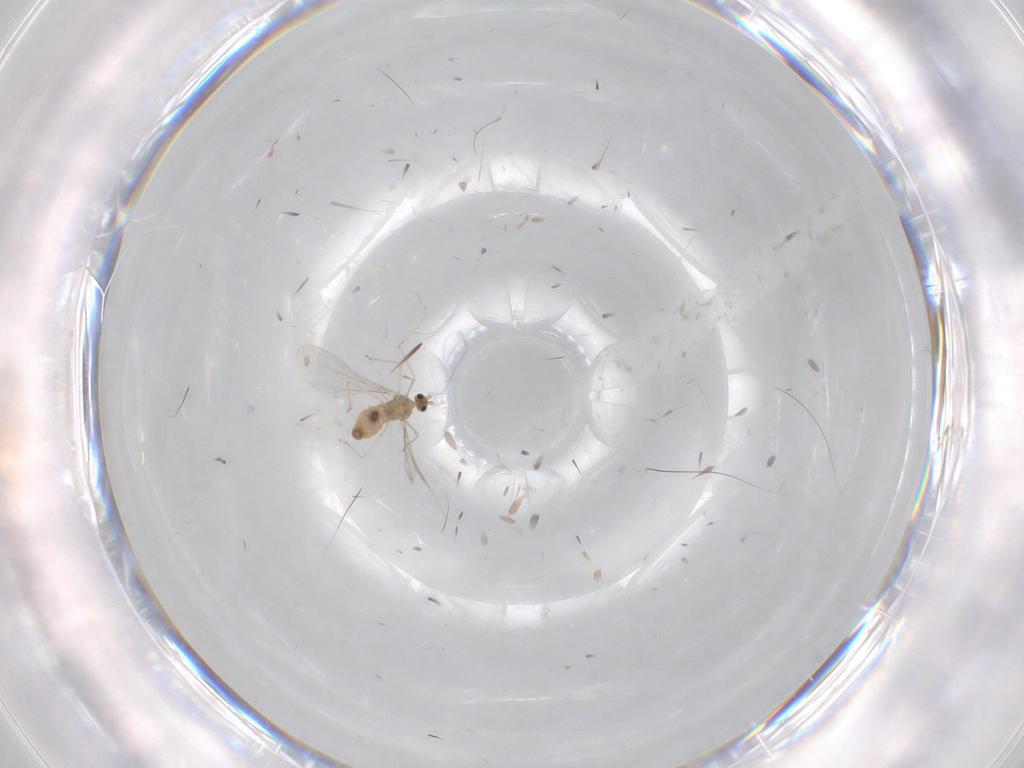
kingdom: Animalia
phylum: Arthropoda
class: Insecta
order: Diptera
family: Cecidomyiidae
